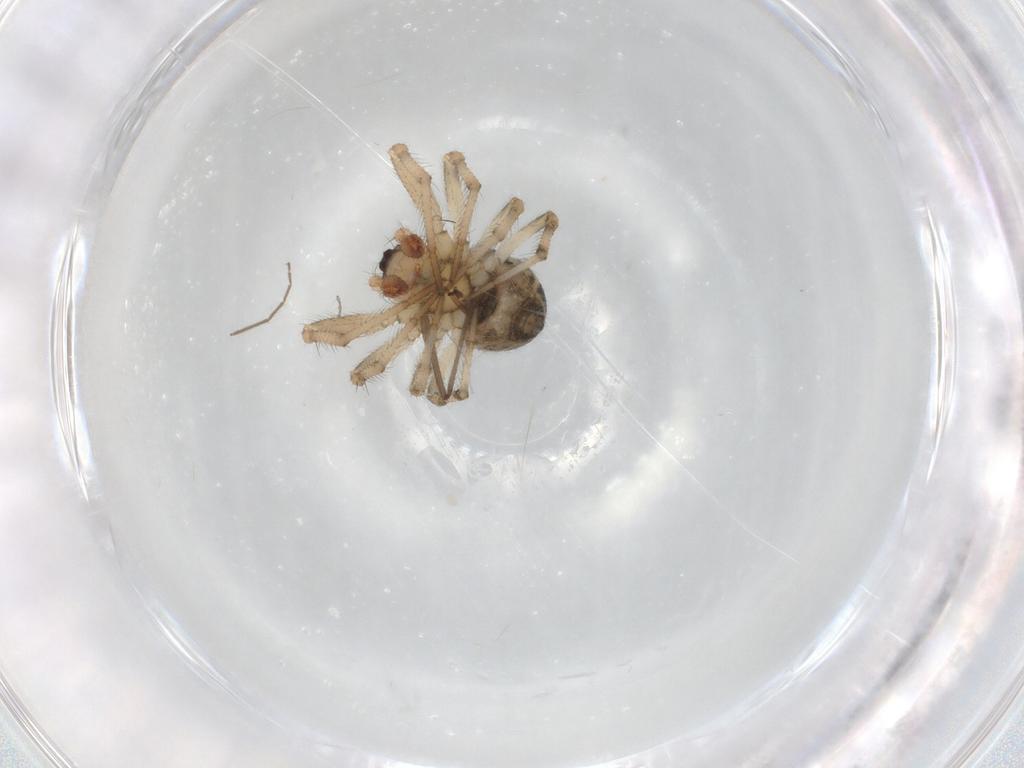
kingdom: Animalia
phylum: Arthropoda
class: Arachnida
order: Araneae
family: Theridiidae
